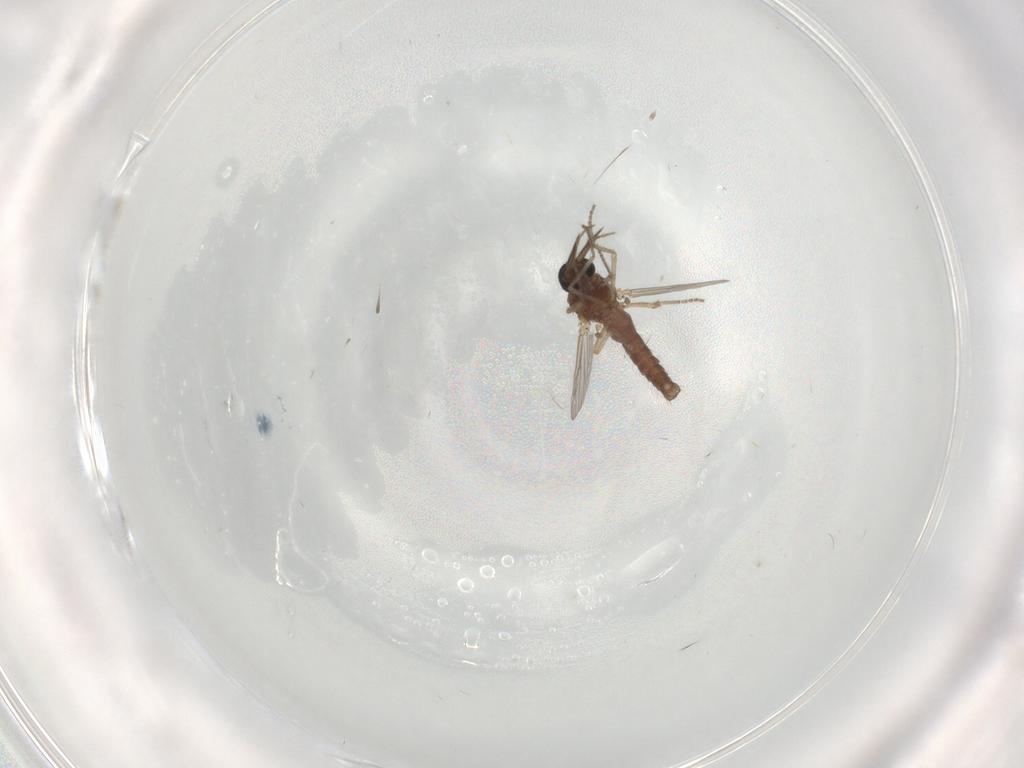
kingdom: Animalia
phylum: Arthropoda
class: Insecta
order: Diptera
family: Ceratopogonidae
